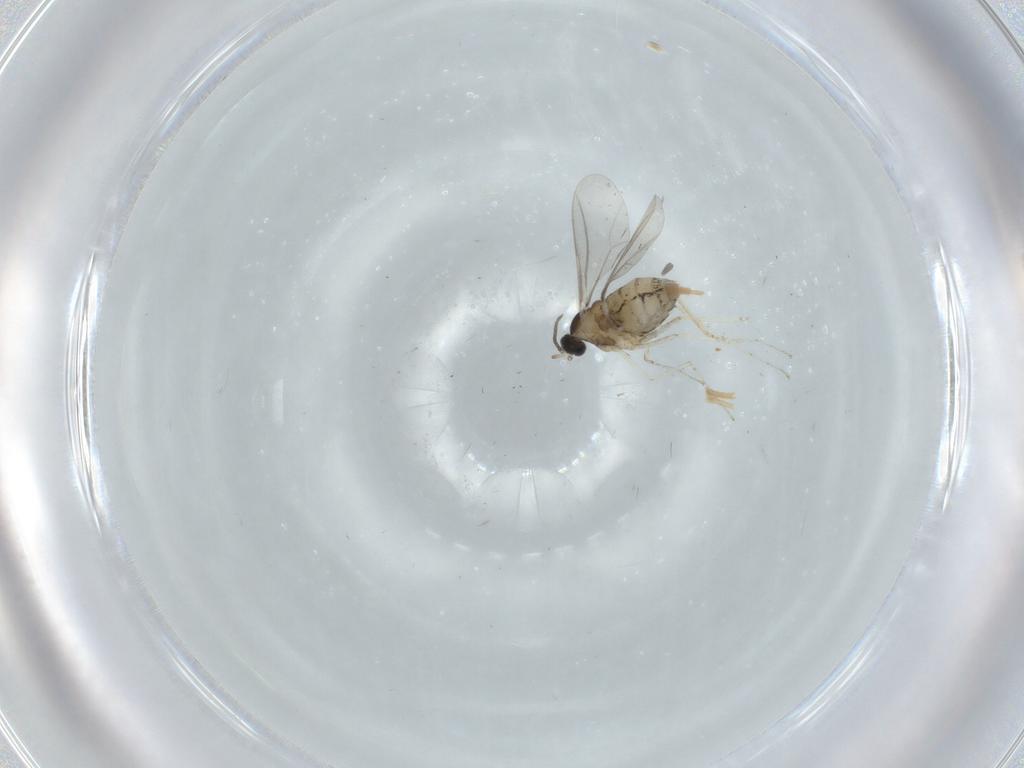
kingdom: Animalia
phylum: Arthropoda
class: Insecta
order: Diptera
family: Cecidomyiidae
